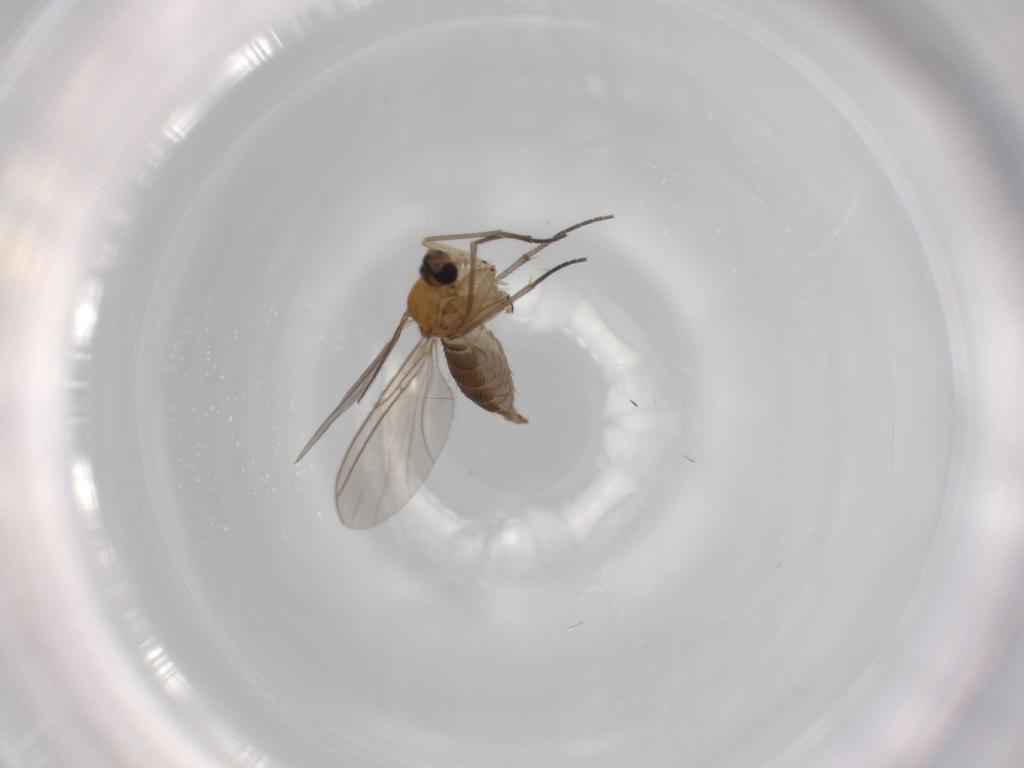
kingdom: Animalia
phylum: Arthropoda
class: Insecta
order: Diptera
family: Sciaridae
